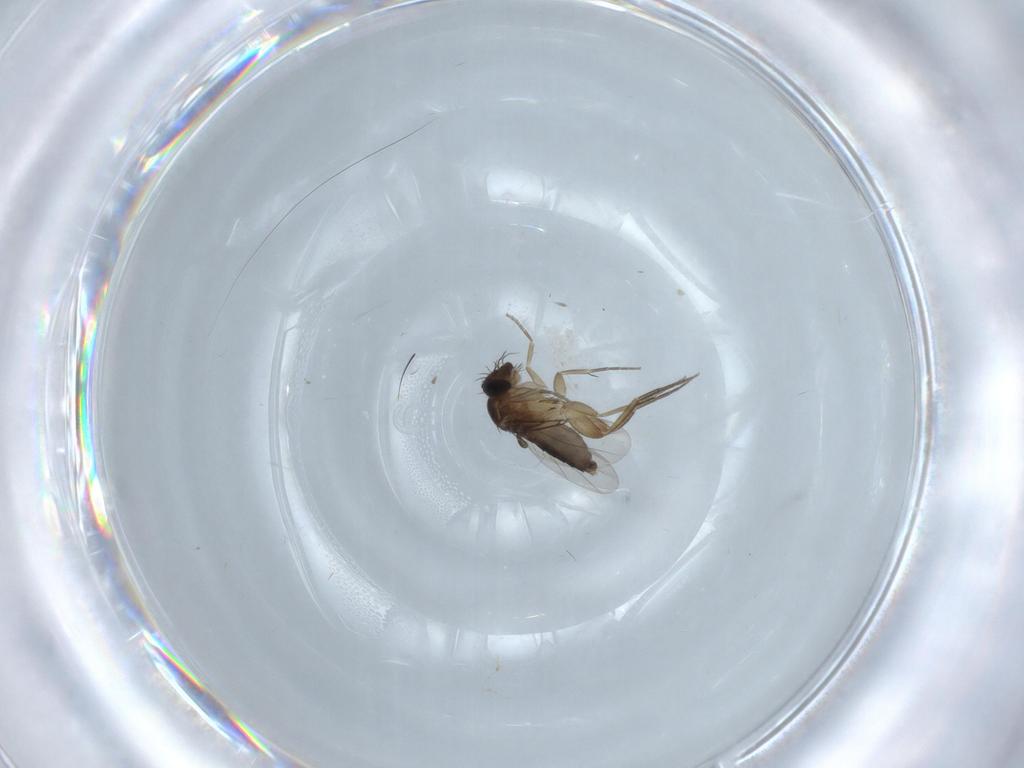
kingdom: Animalia
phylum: Arthropoda
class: Insecta
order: Diptera
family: Phoridae
